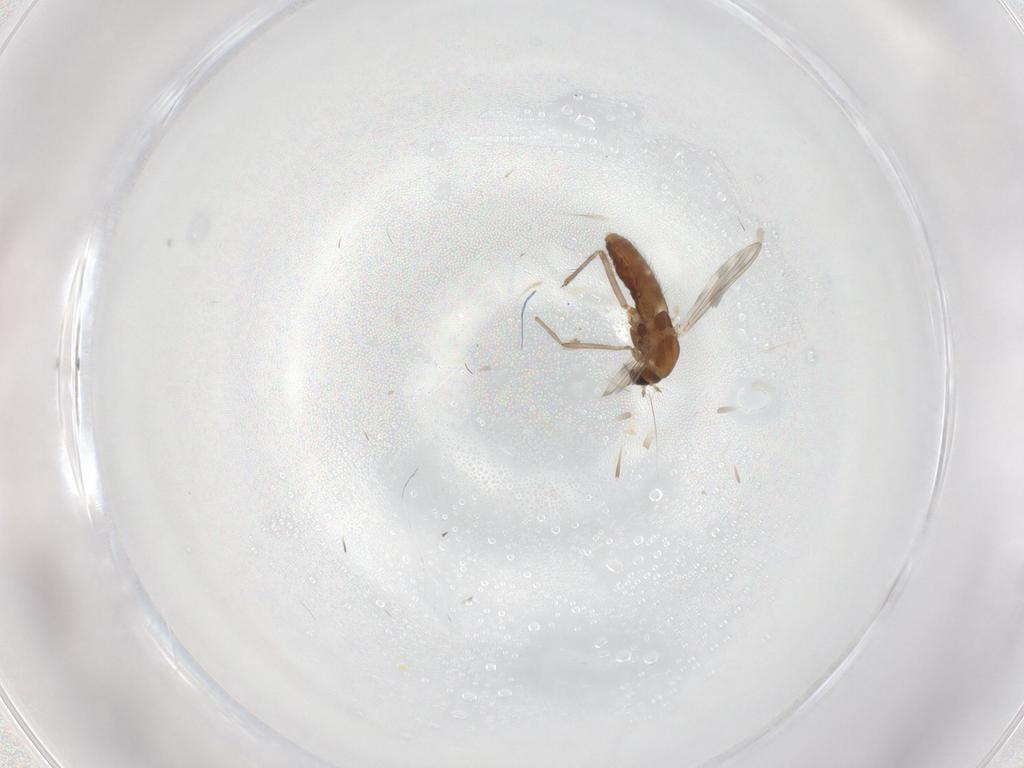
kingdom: Animalia
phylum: Arthropoda
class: Insecta
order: Diptera
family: Chironomidae
